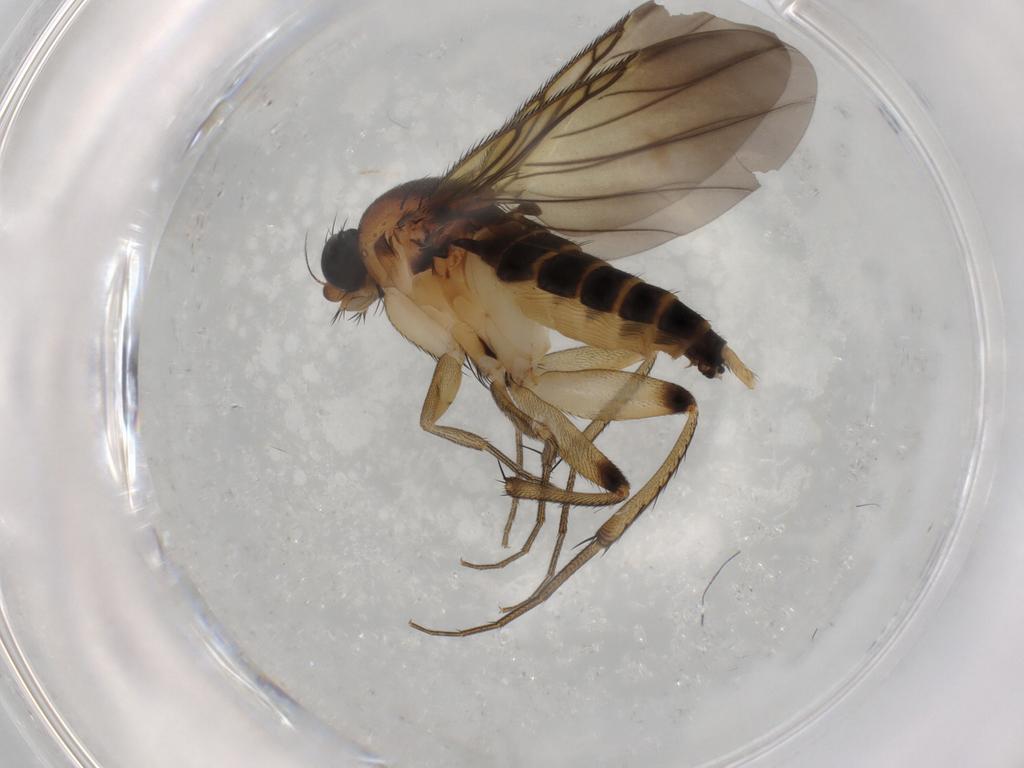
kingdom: Animalia
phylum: Arthropoda
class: Insecta
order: Diptera
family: Phoridae
